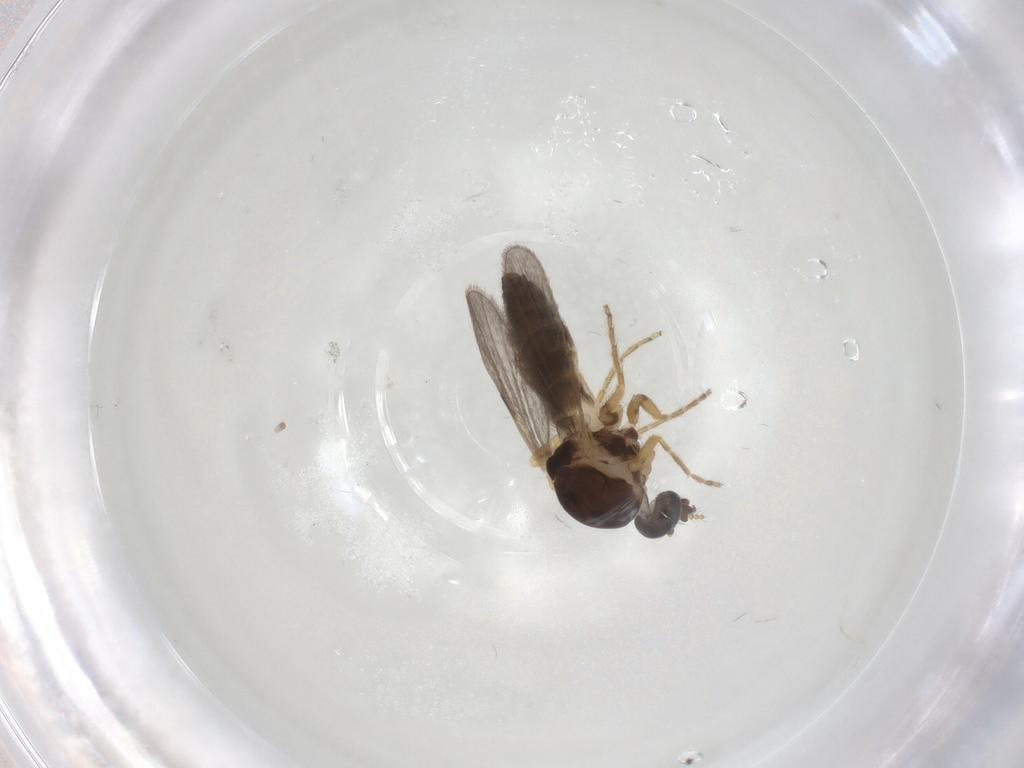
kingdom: Animalia
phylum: Arthropoda
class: Insecta
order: Diptera
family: Ceratopogonidae
